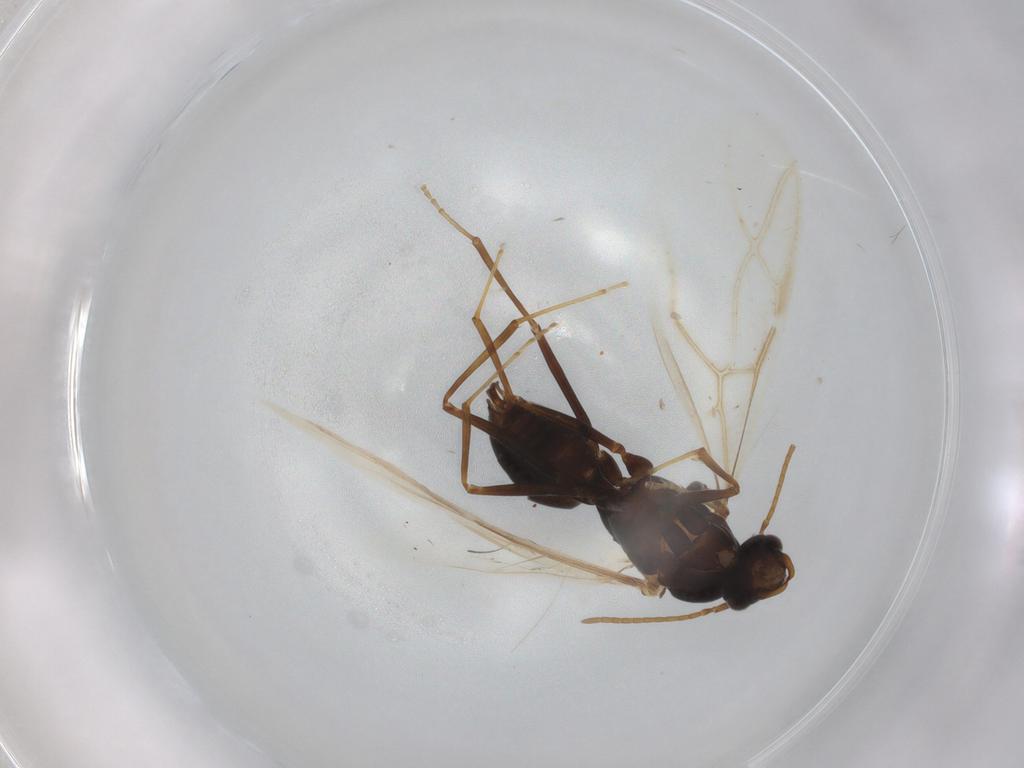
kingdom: Animalia
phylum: Arthropoda
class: Insecta
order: Hymenoptera
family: Formicidae
